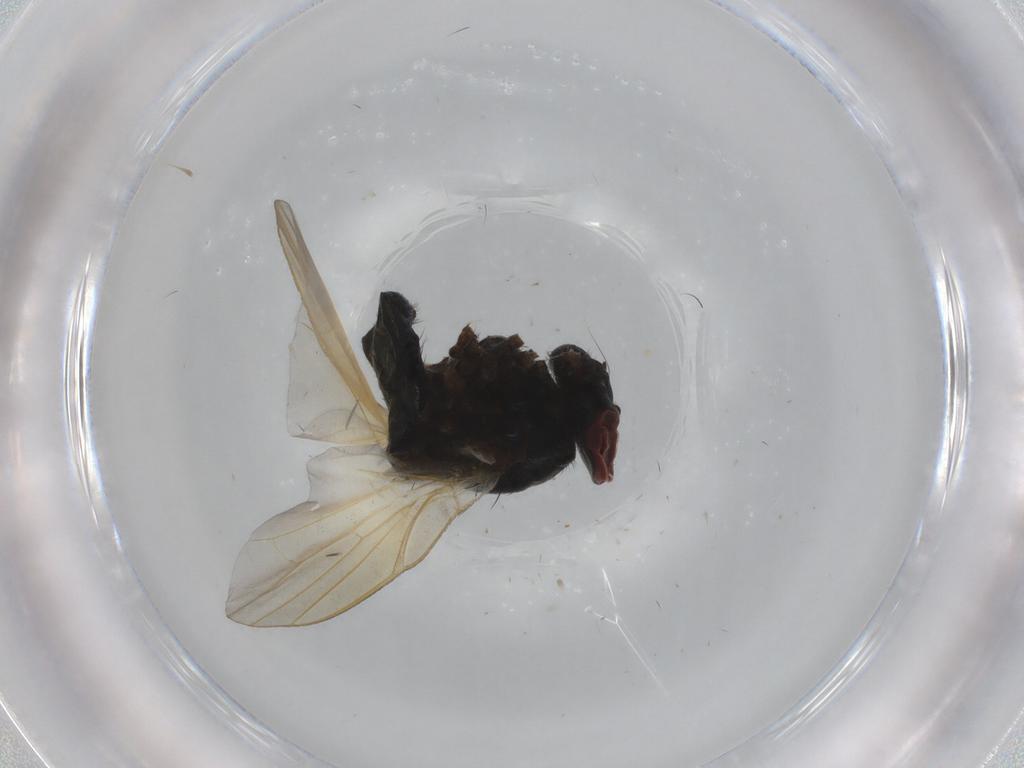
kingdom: Animalia
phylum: Arthropoda
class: Insecta
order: Diptera
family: Lonchaeidae
